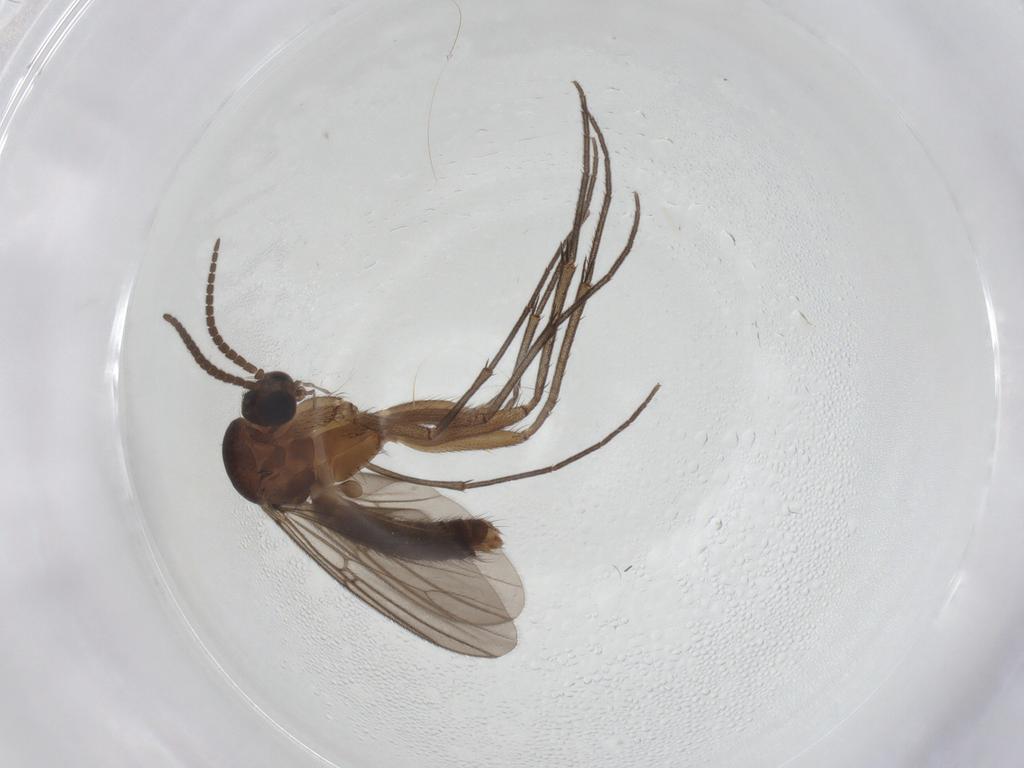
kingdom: Animalia
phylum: Arthropoda
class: Insecta
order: Diptera
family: Mycetophilidae
